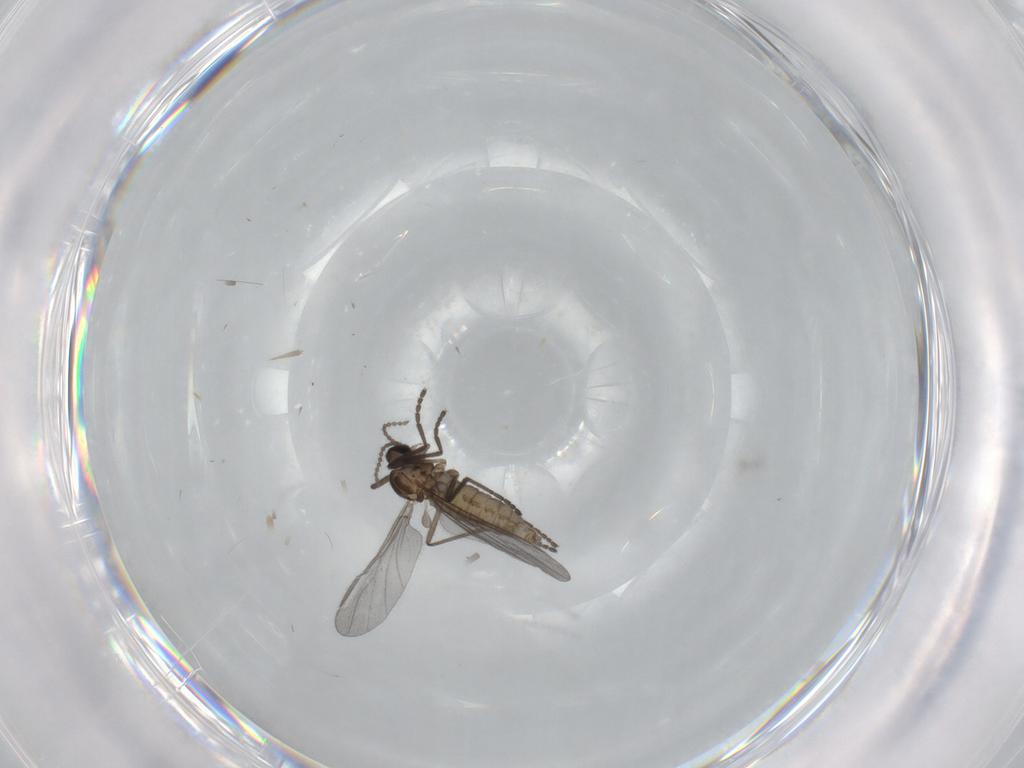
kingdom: Animalia
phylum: Arthropoda
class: Insecta
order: Diptera
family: Cecidomyiidae
